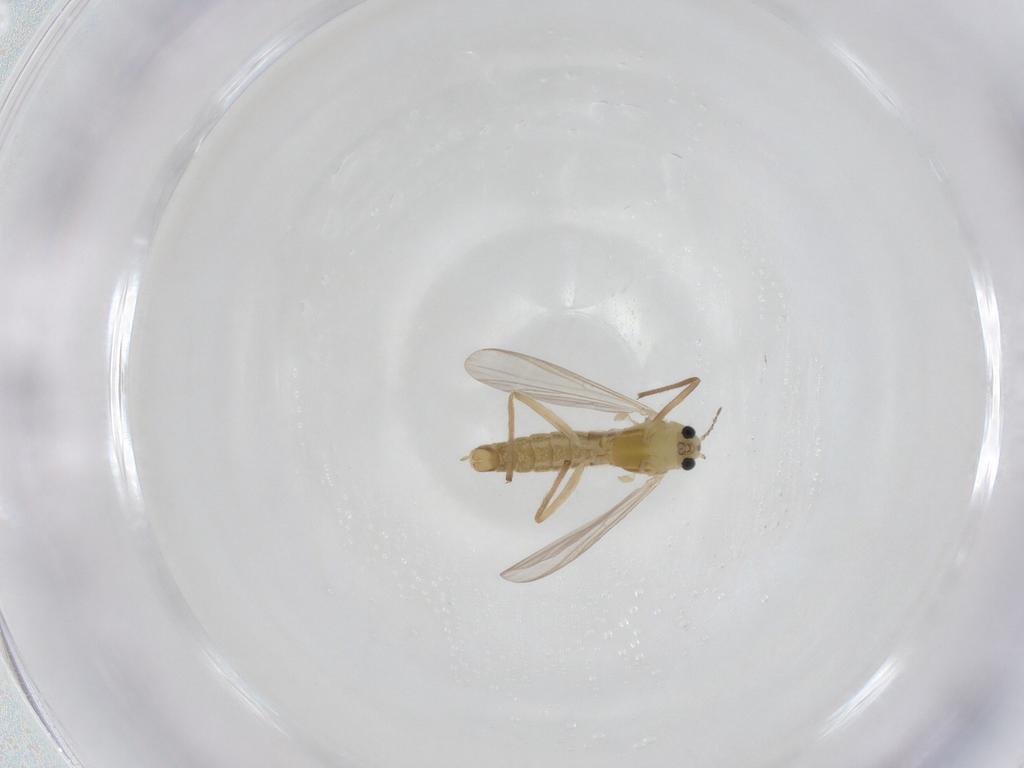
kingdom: Animalia
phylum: Arthropoda
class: Insecta
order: Diptera
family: Chironomidae
